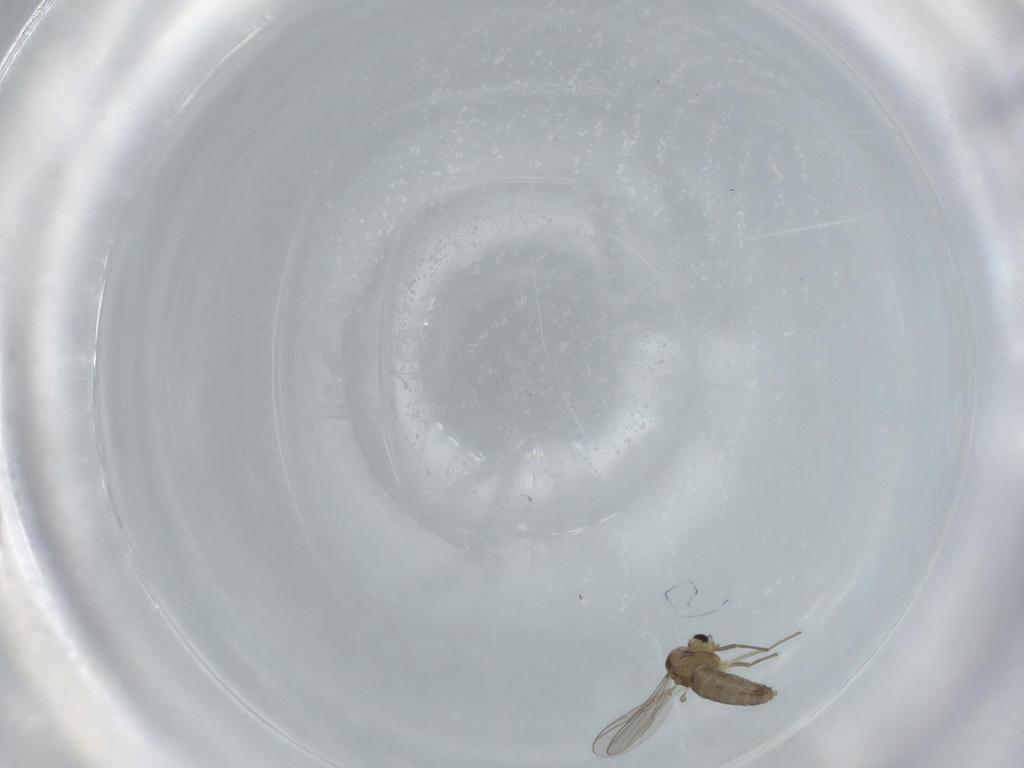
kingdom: Animalia
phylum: Arthropoda
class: Insecta
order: Diptera
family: Chironomidae
